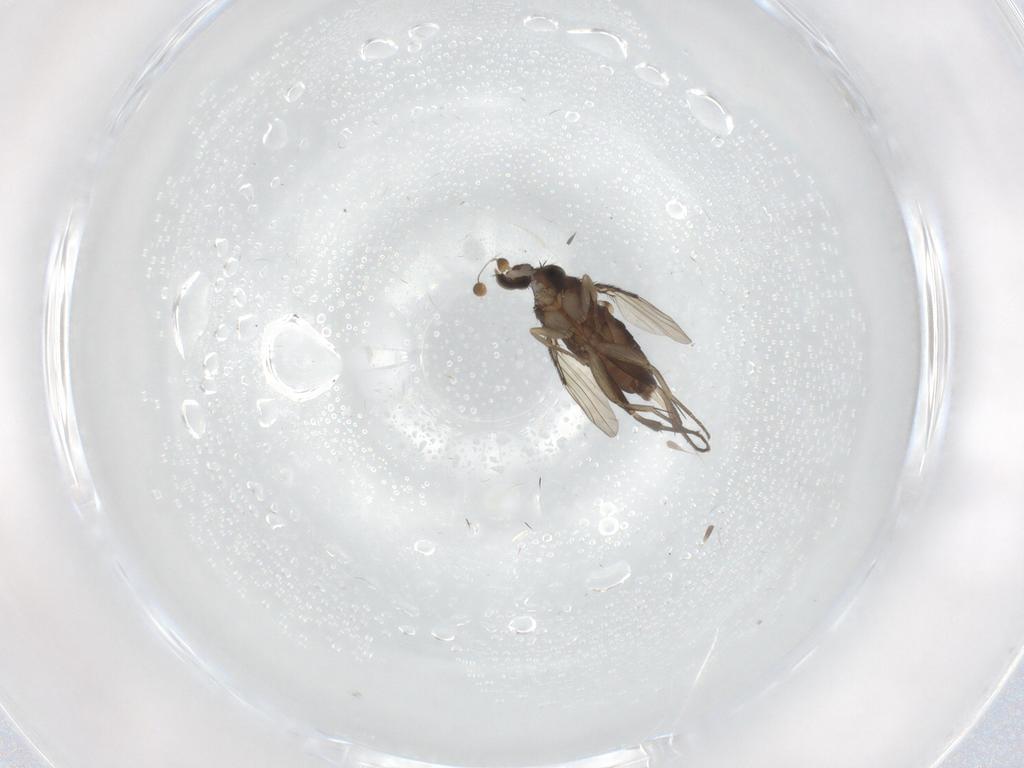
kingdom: Animalia
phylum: Arthropoda
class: Insecta
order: Diptera
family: Phoridae
